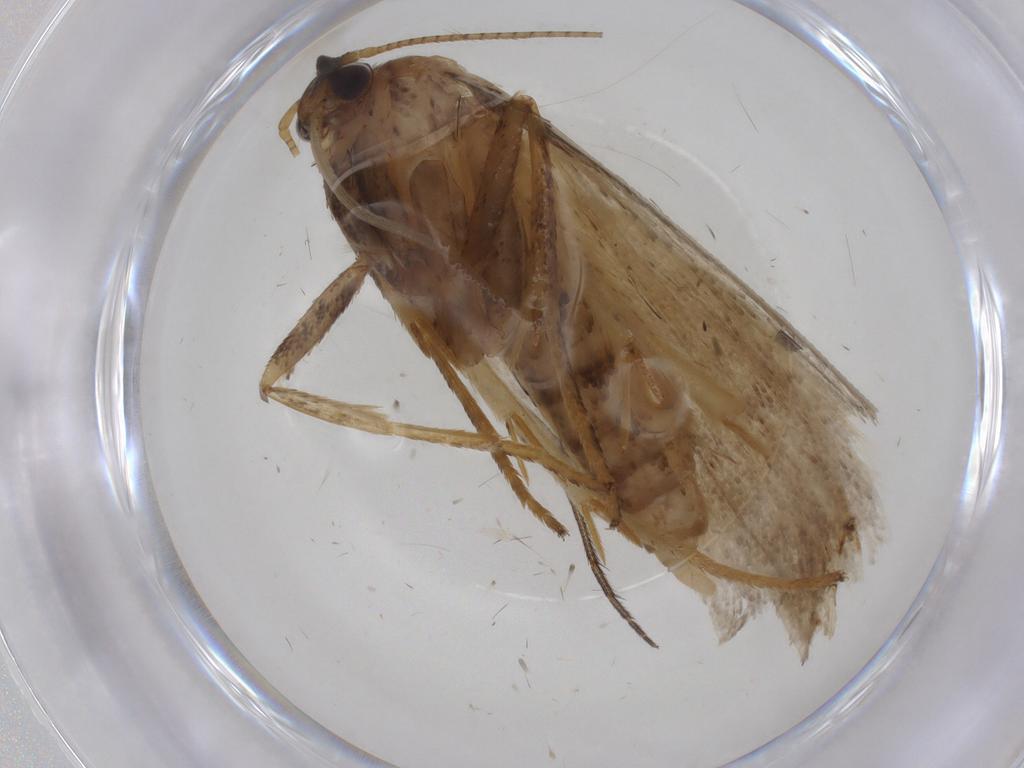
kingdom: Animalia
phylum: Arthropoda
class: Insecta
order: Lepidoptera
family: Depressariidae
